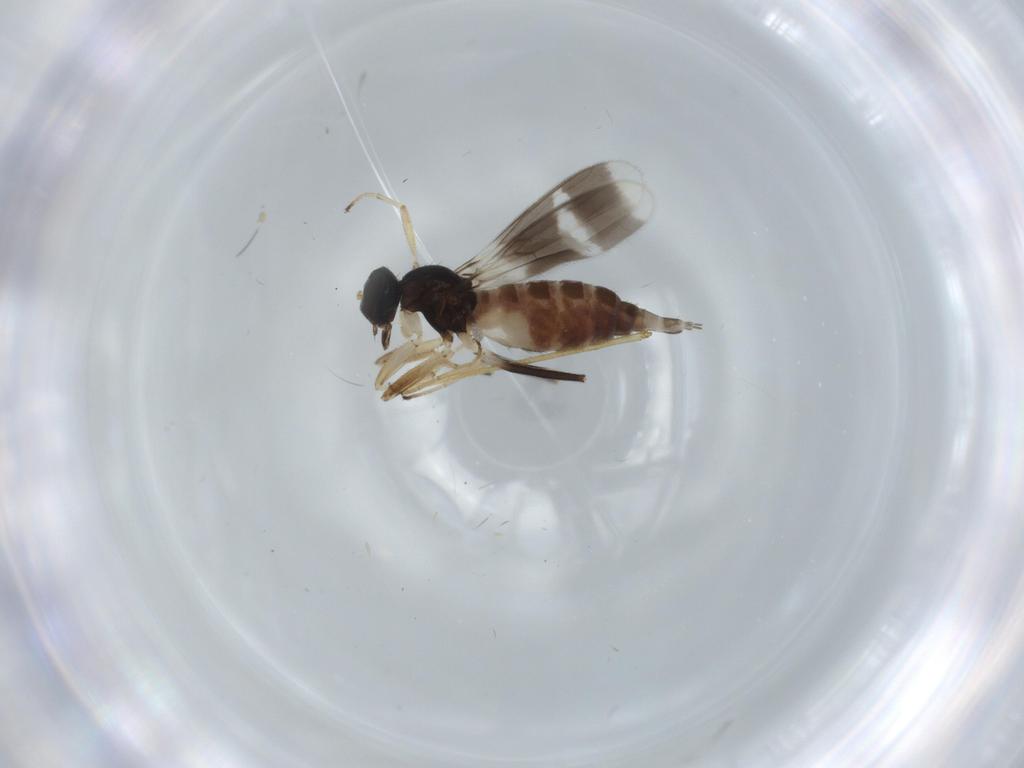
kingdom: Animalia
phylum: Arthropoda
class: Insecta
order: Diptera
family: Hybotidae
